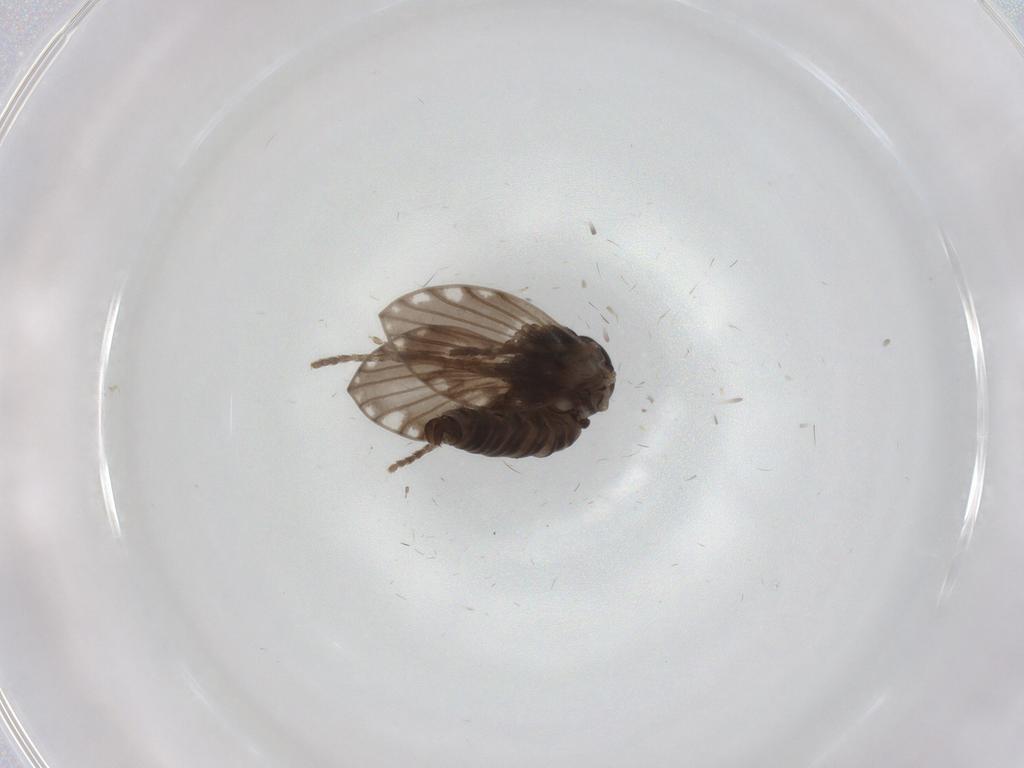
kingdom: Animalia
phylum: Arthropoda
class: Insecta
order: Diptera
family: Psychodidae
